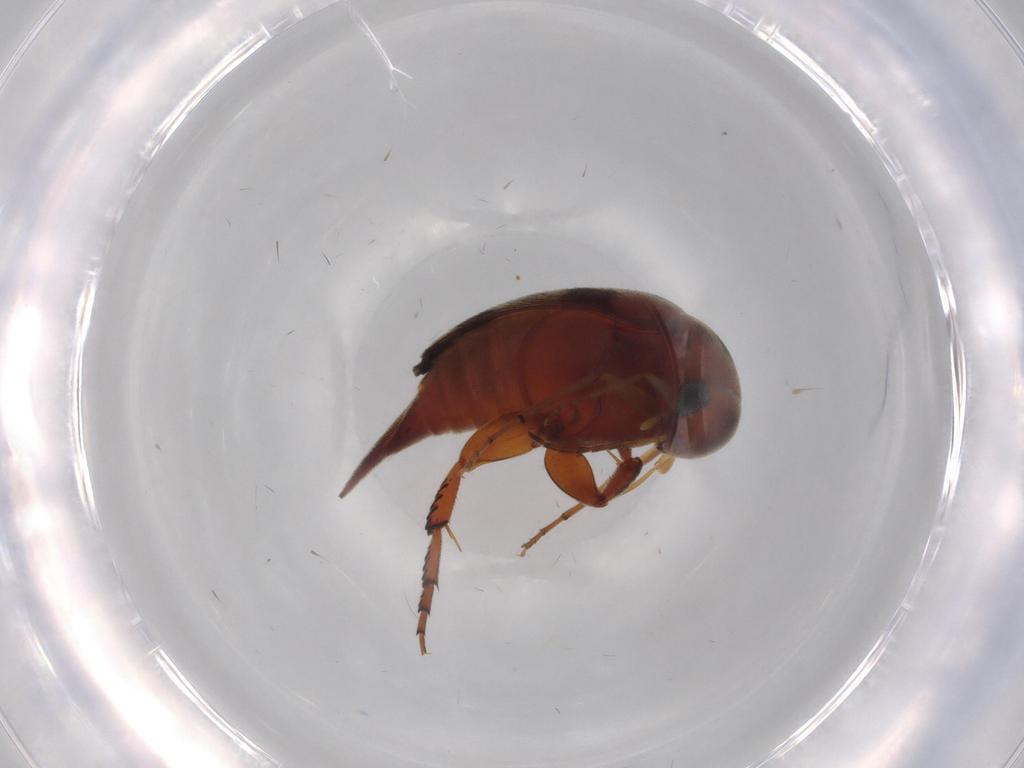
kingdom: Animalia
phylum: Arthropoda
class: Insecta
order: Coleoptera
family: Mordellidae
